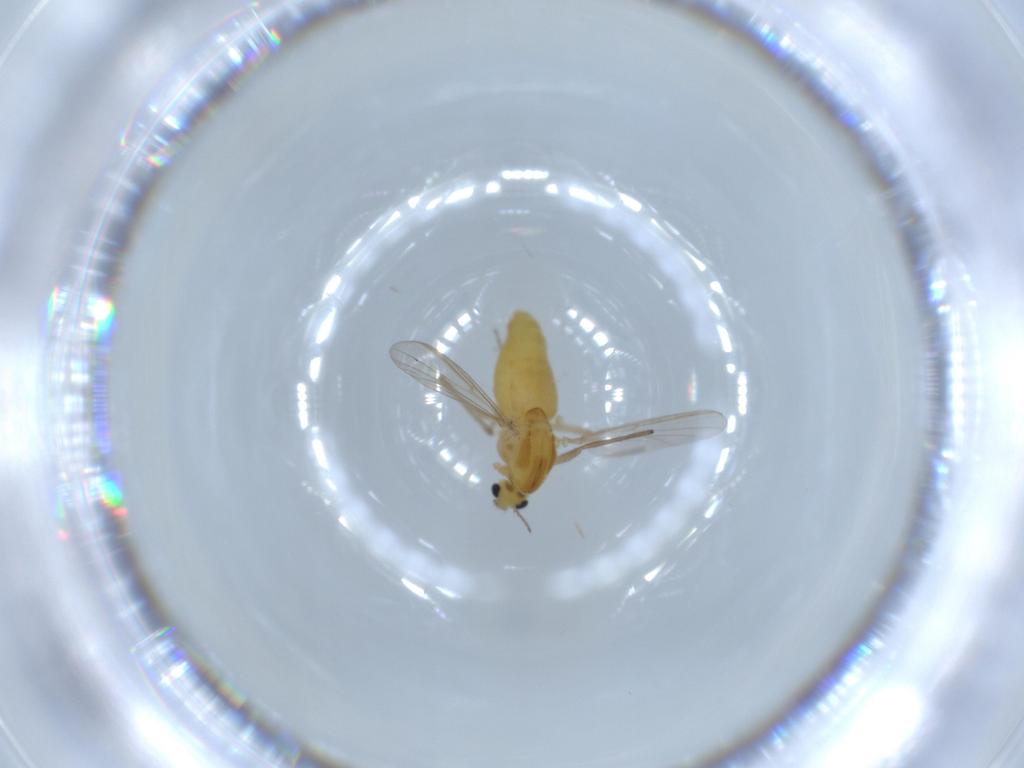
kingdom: Animalia
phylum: Arthropoda
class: Insecta
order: Diptera
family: Chironomidae
